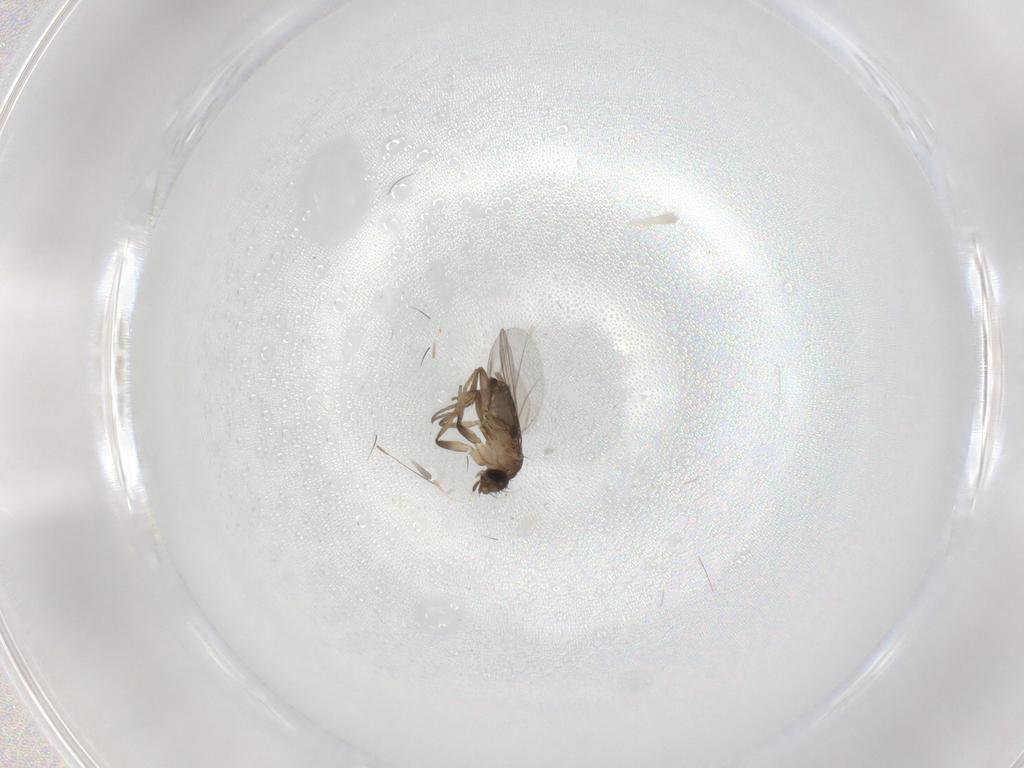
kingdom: Animalia
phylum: Arthropoda
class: Insecta
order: Diptera
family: Phoridae
